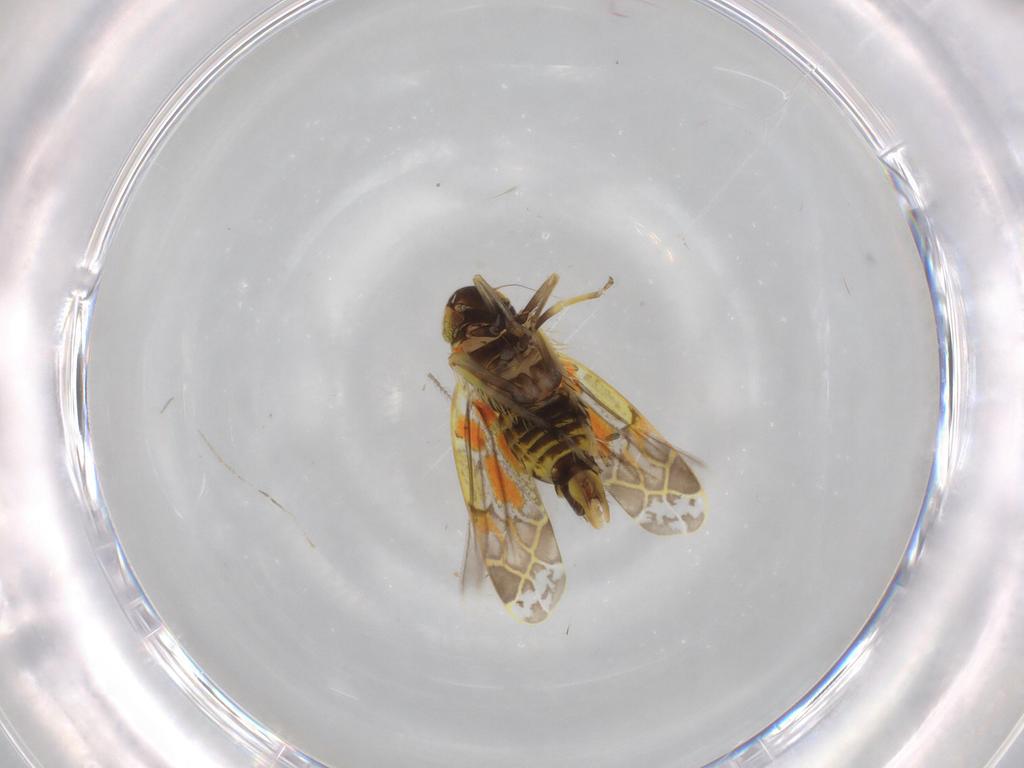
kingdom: Animalia
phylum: Arthropoda
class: Insecta
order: Hemiptera
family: Cicadellidae
